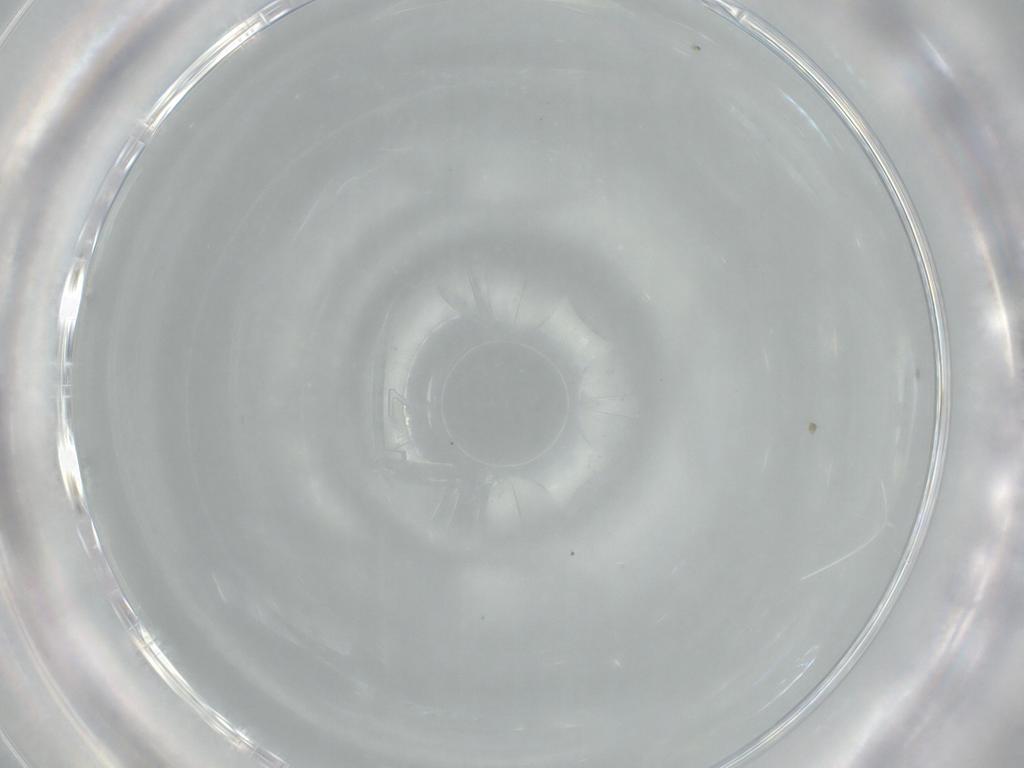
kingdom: Animalia
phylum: Arthropoda
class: Insecta
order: Diptera
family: Cecidomyiidae
